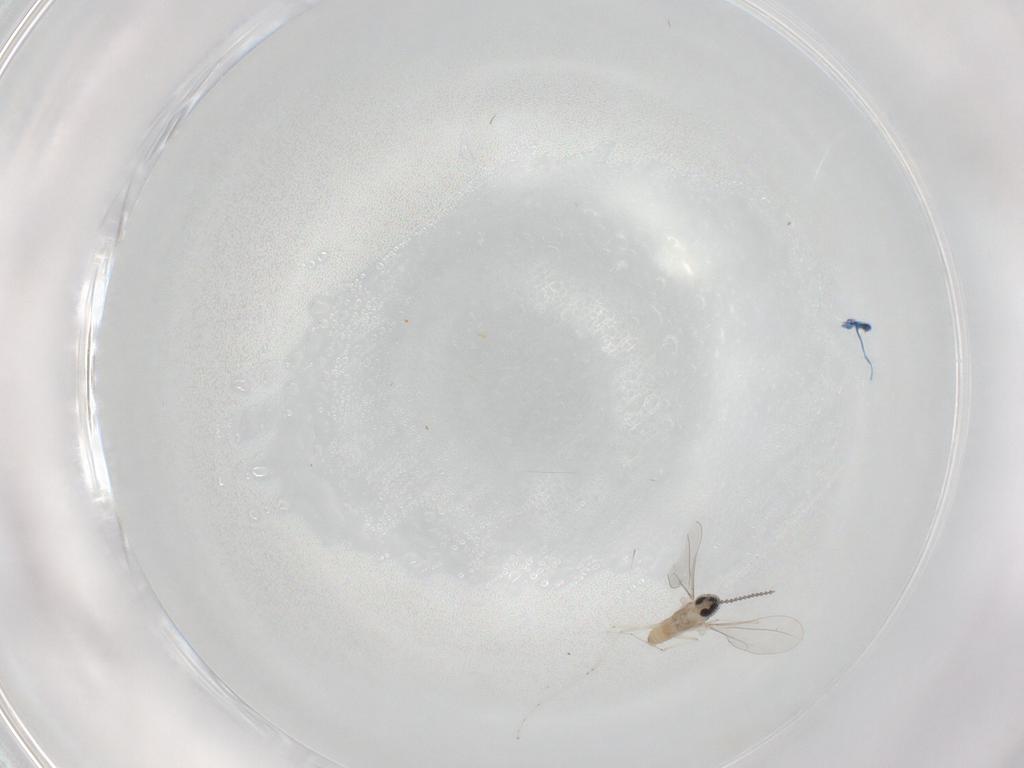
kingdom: Animalia
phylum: Arthropoda
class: Insecta
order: Diptera
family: Cecidomyiidae
